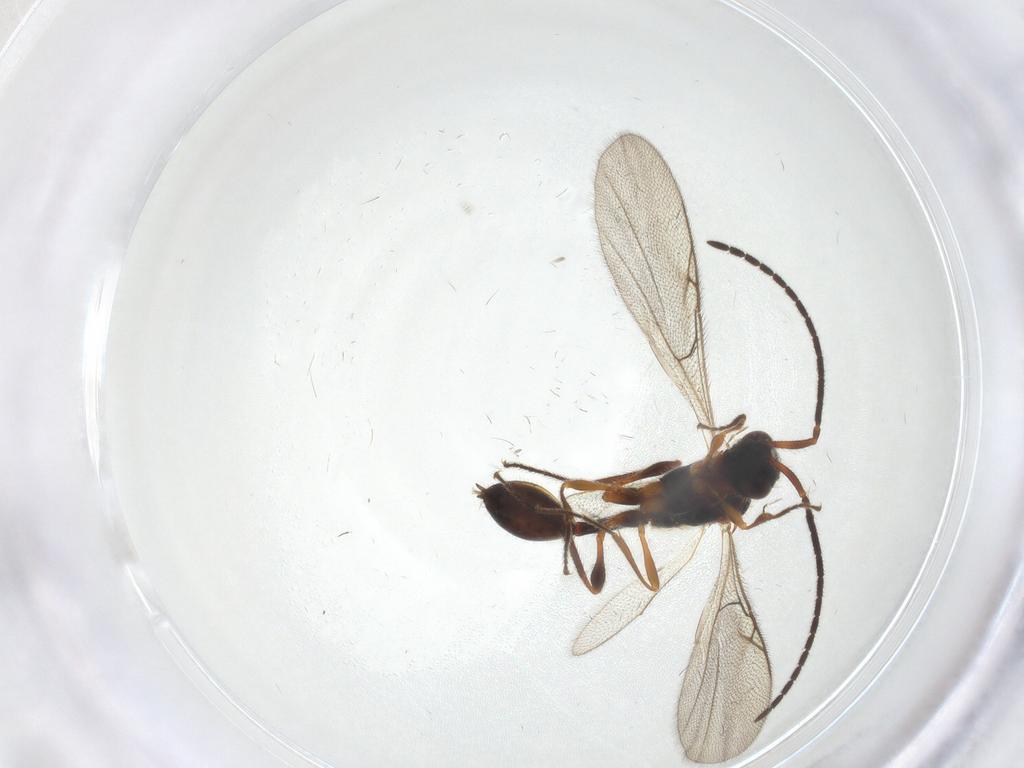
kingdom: Animalia
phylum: Arthropoda
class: Insecta
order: Hymenoptera
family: Diapriidae
